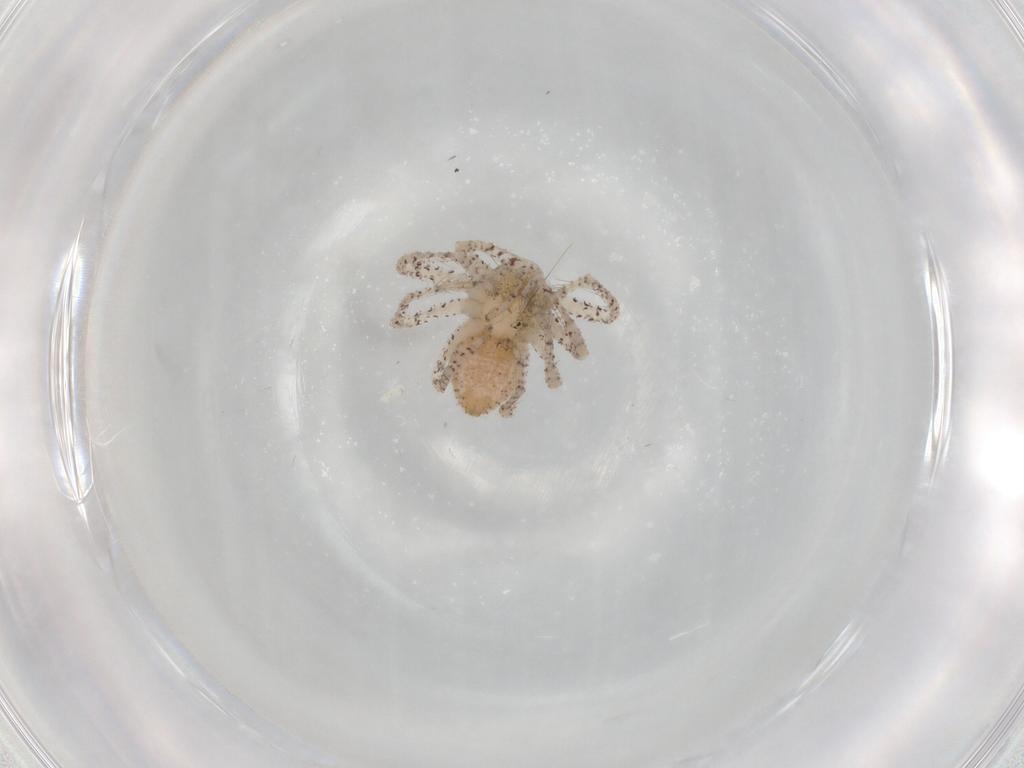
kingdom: Animalia
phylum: Arthropoda
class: Arachnida
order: Araneae
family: Philodromidae
